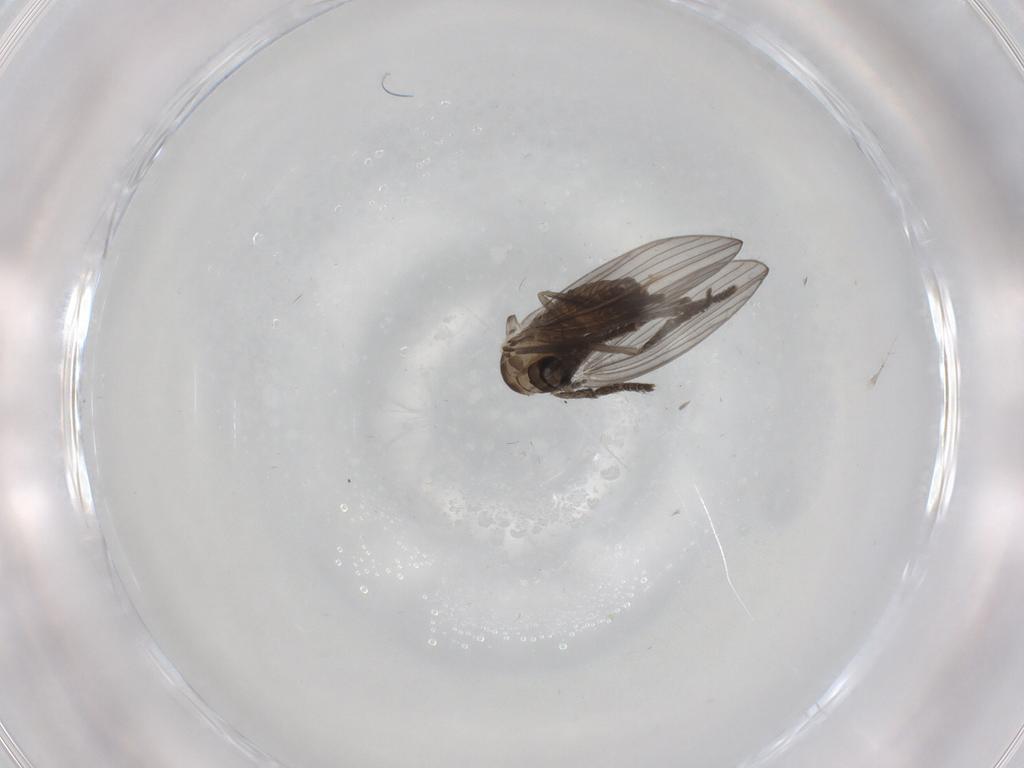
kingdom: Animalia
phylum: Arthropoda
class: Insecta
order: Diptera
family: Psychodidae
